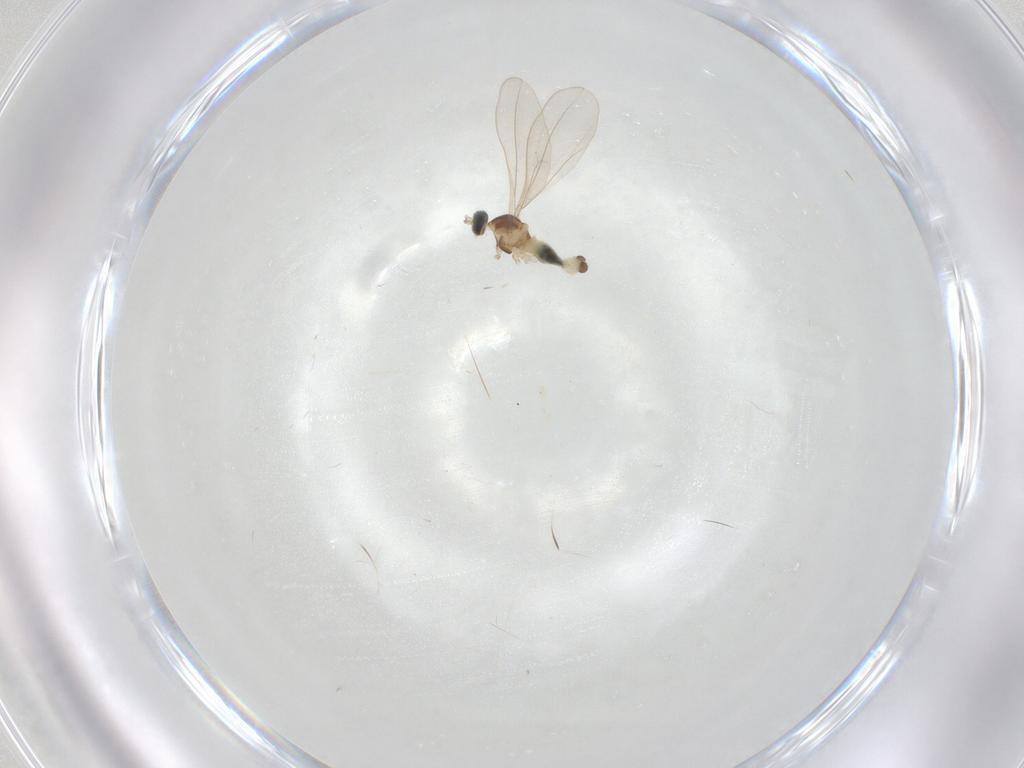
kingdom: Animalia
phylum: Arthropoda
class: Insecta
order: Diptera
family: Cecidomyiidae
